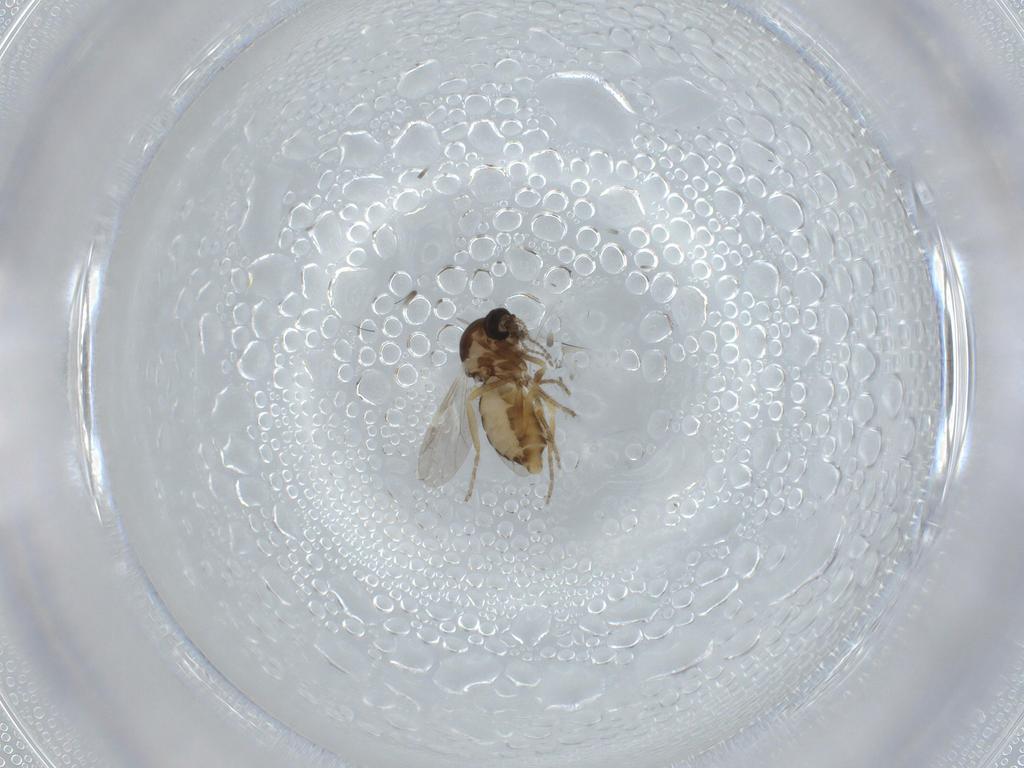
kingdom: Animalia
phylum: Arthropoda
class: Insecta
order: Diptera
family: Ceratopogonidae
